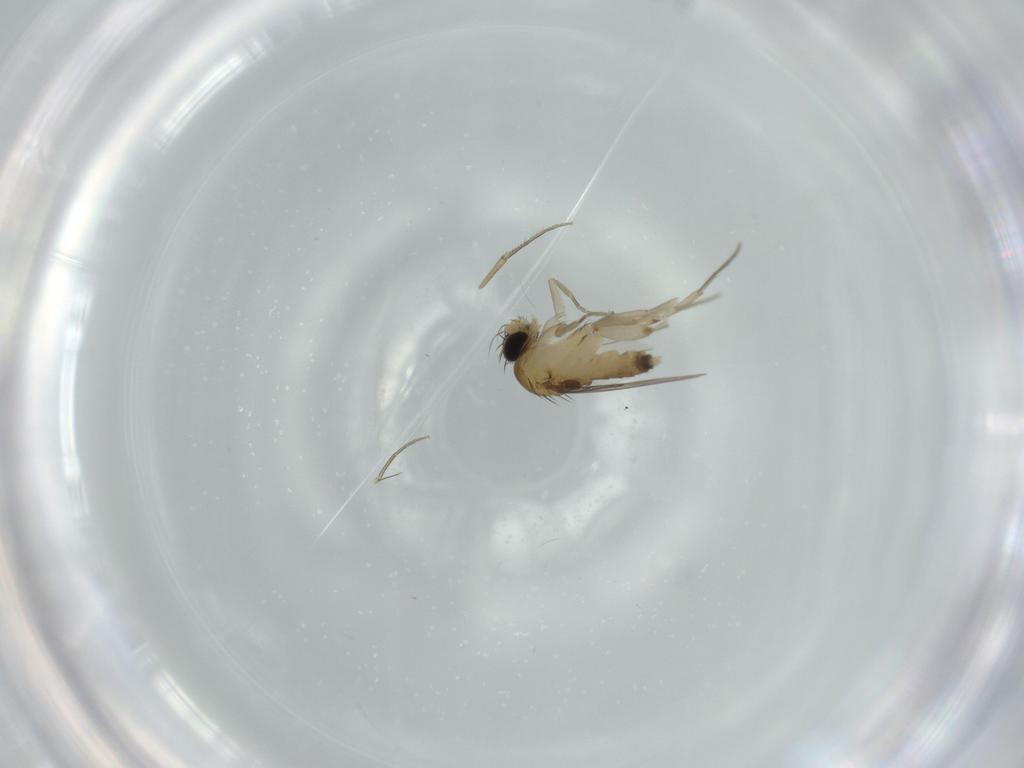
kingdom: Animalia
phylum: Arthropoda
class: Insecta
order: Diptera
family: Phoridae
